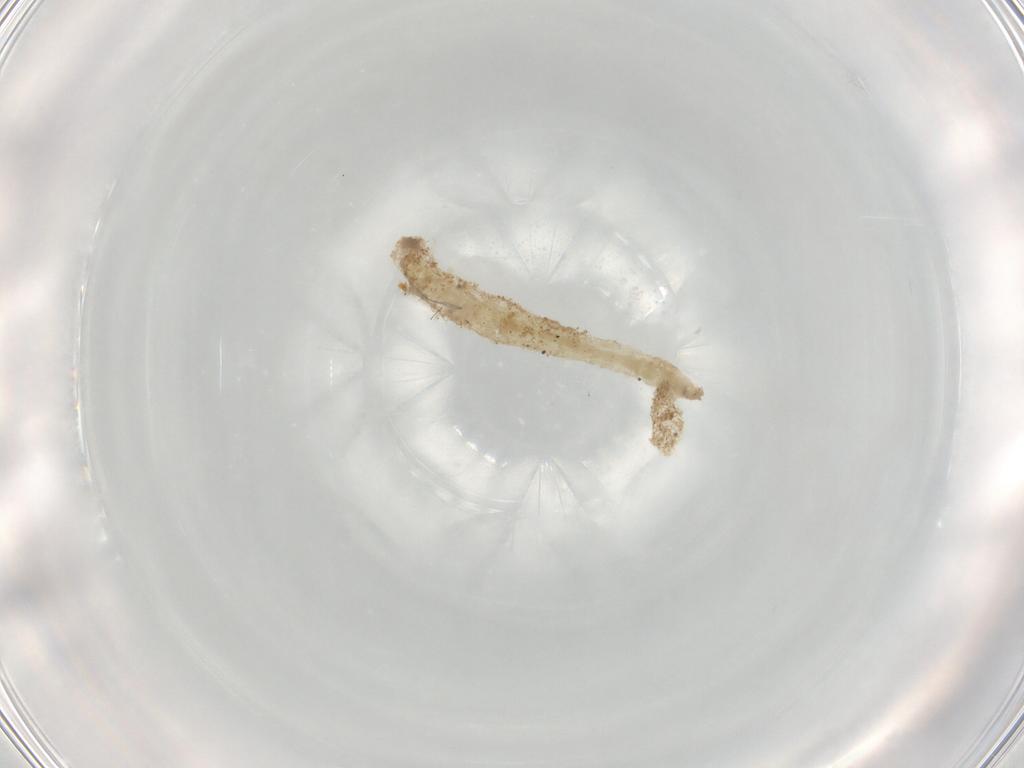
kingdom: Animalia
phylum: Arthropoda
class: Insecta
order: Diptera
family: Chironomidae
